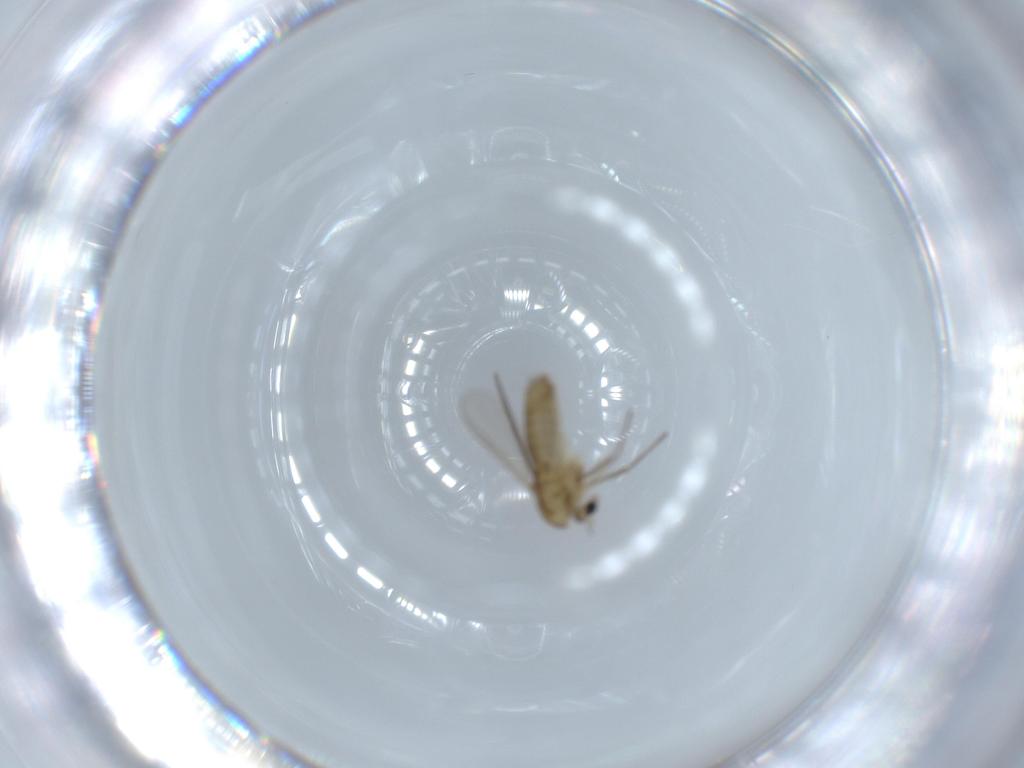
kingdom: Animalia
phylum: Arthropoda
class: Insecta
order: Diptera
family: Chironomidae
